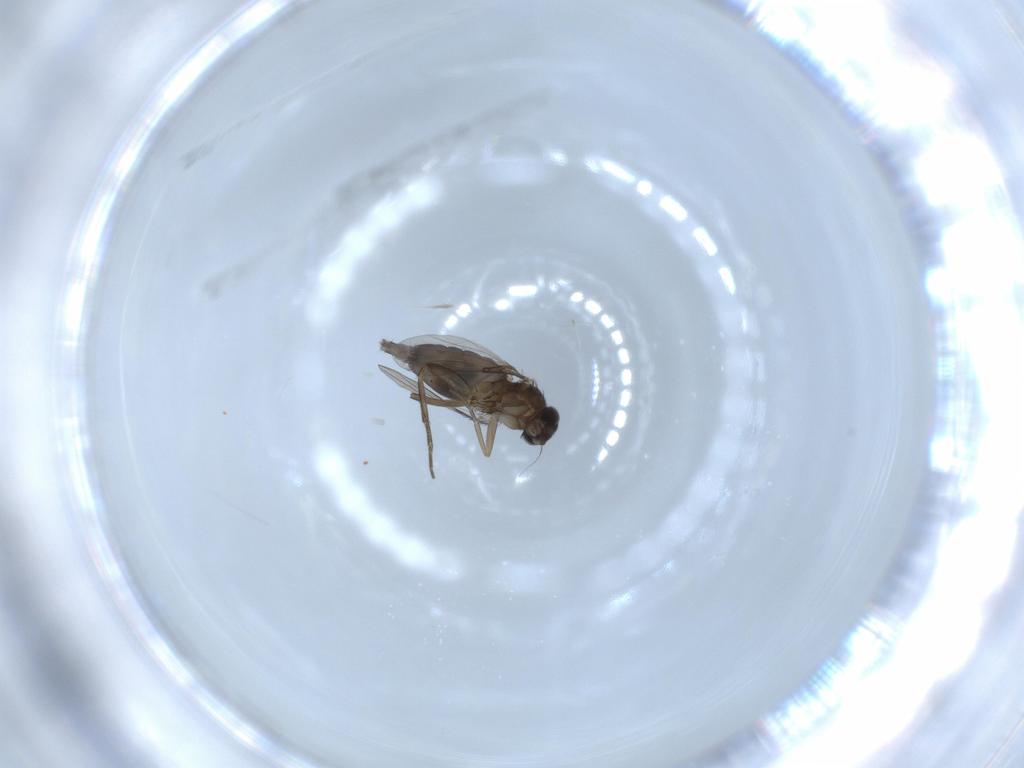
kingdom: Animalia
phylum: Arthropoda
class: Insecta
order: Diptera
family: Phoridae
